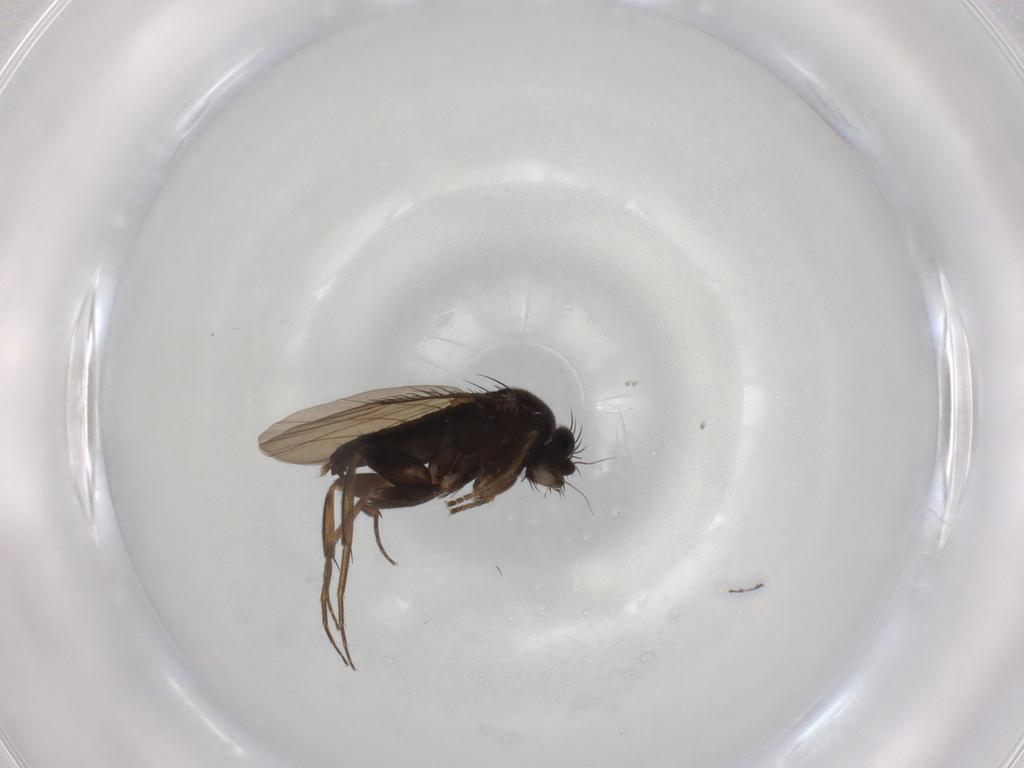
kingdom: Animalia
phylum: Arthropoda
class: Insecta
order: Diptera
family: Phoridae
